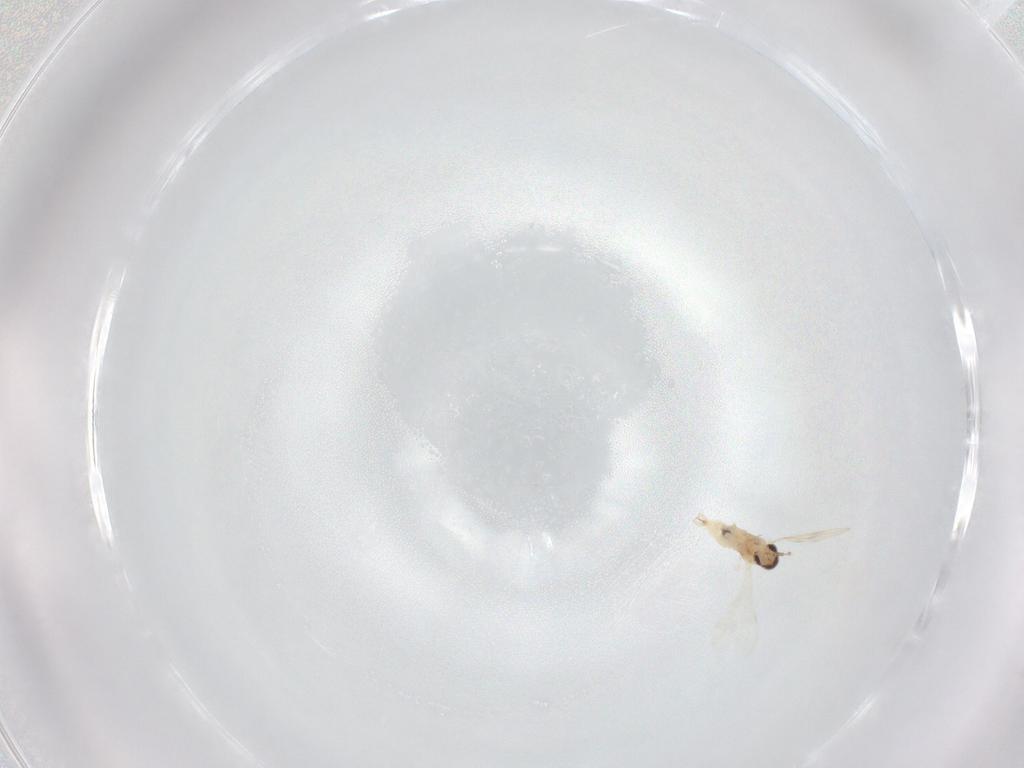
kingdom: Animalia
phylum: Arthropoda
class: Insecta
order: Diptera
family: Cecidomyiidae
